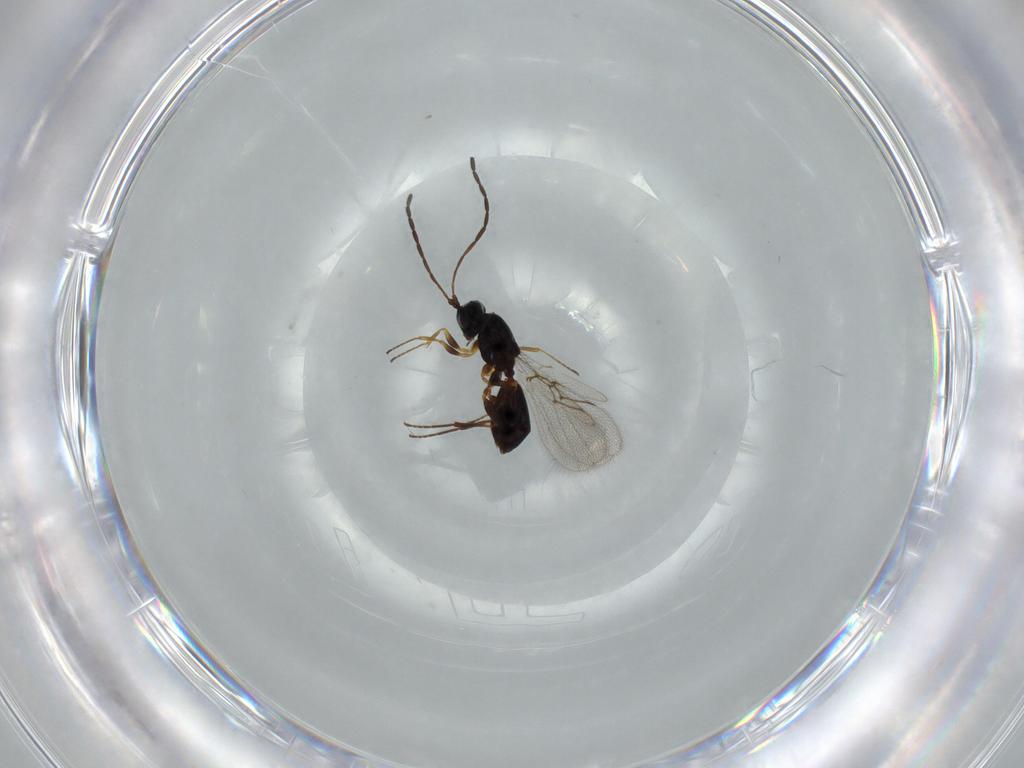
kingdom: Animalia
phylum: Arthropoda
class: Insecta
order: Hymenoptera
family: Figitidae
